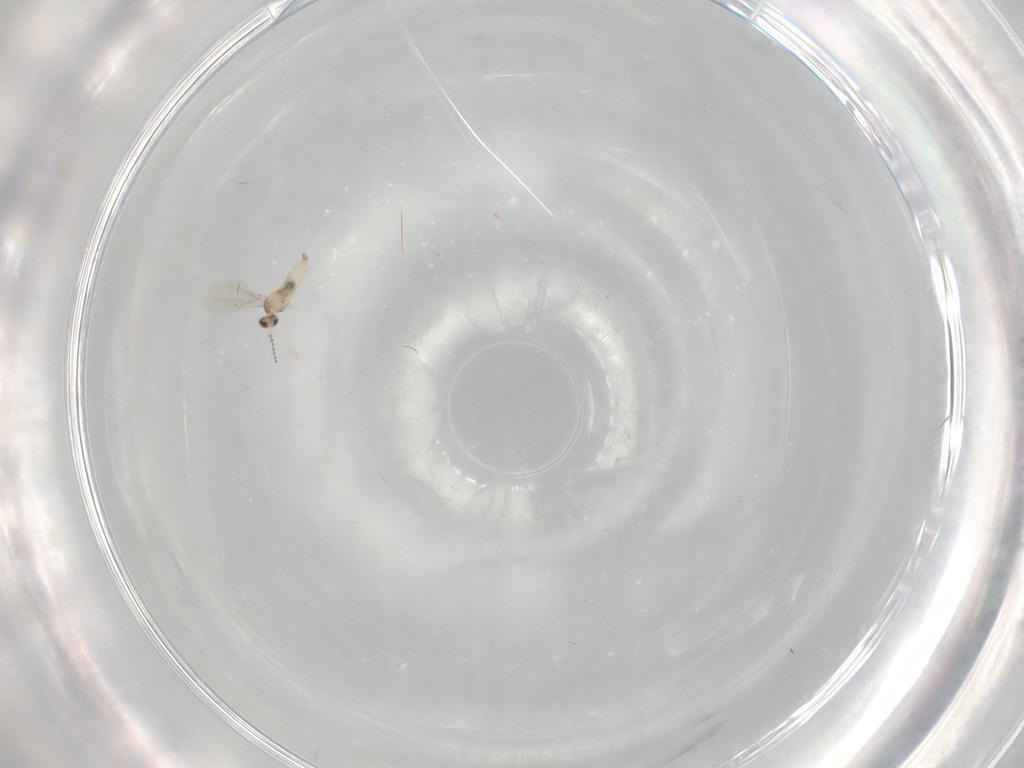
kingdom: Animalia
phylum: Arthropoda
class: Insecta
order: Diptera
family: Cecidomyiidae
